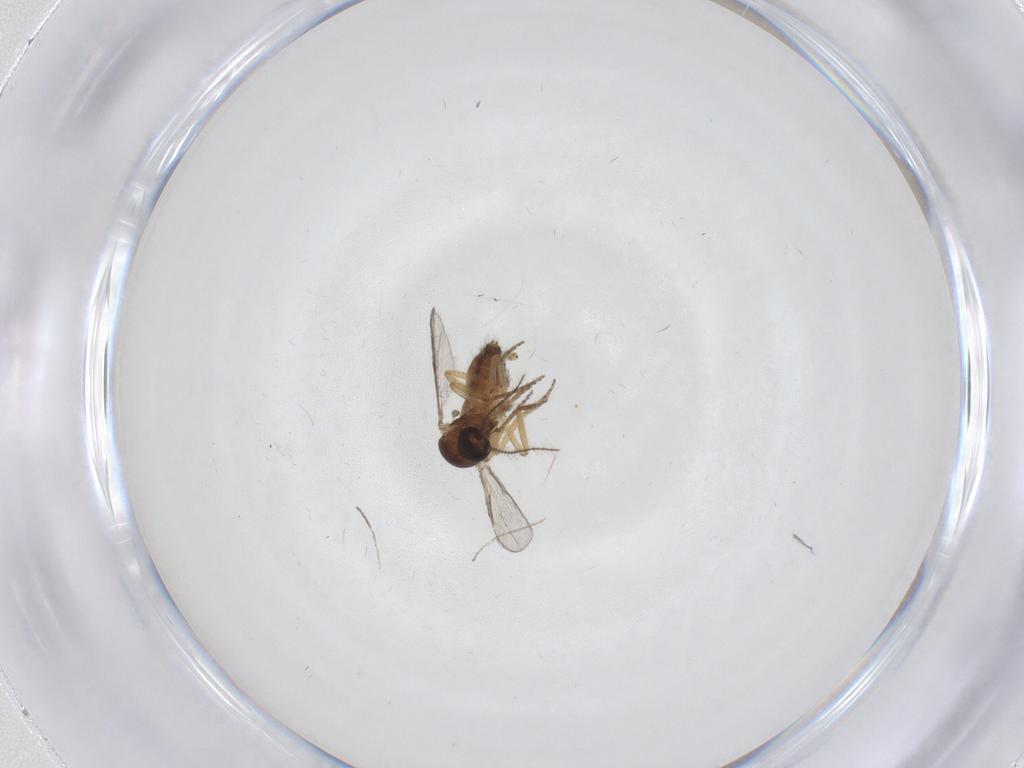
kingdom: Animalia
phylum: Arthropoda
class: Insecta
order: Diptera
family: Cecidomyiidae
